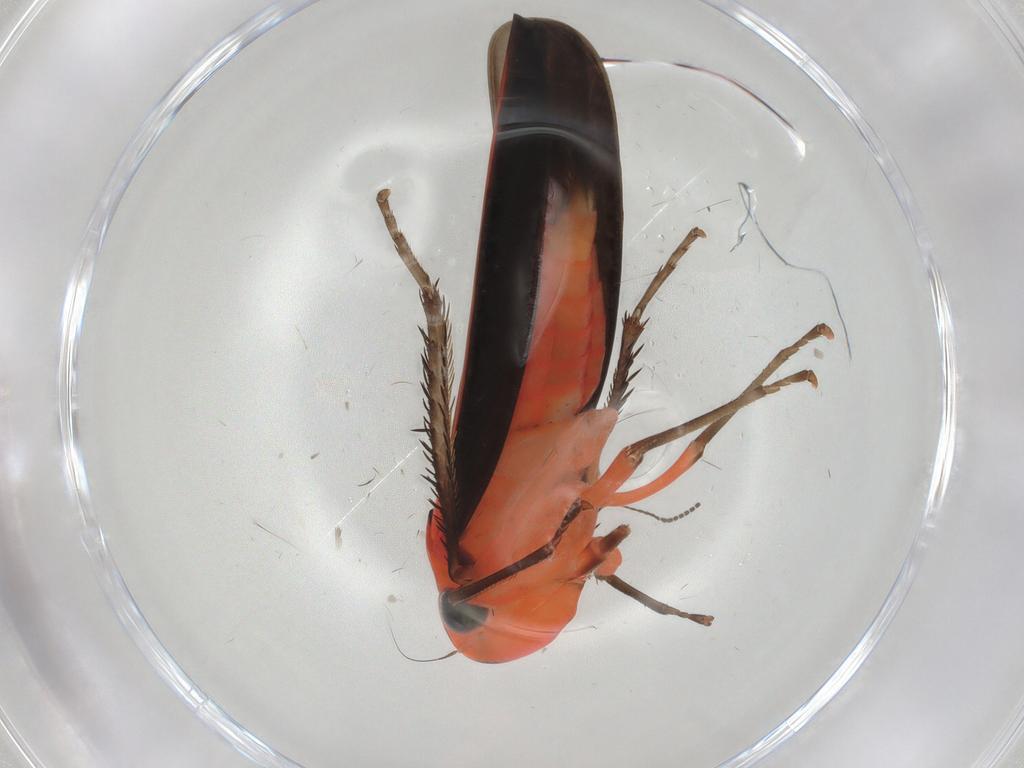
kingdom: Animalia
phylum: Arthropoda
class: Insecta
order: Hemiptera
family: Cicadellidae
